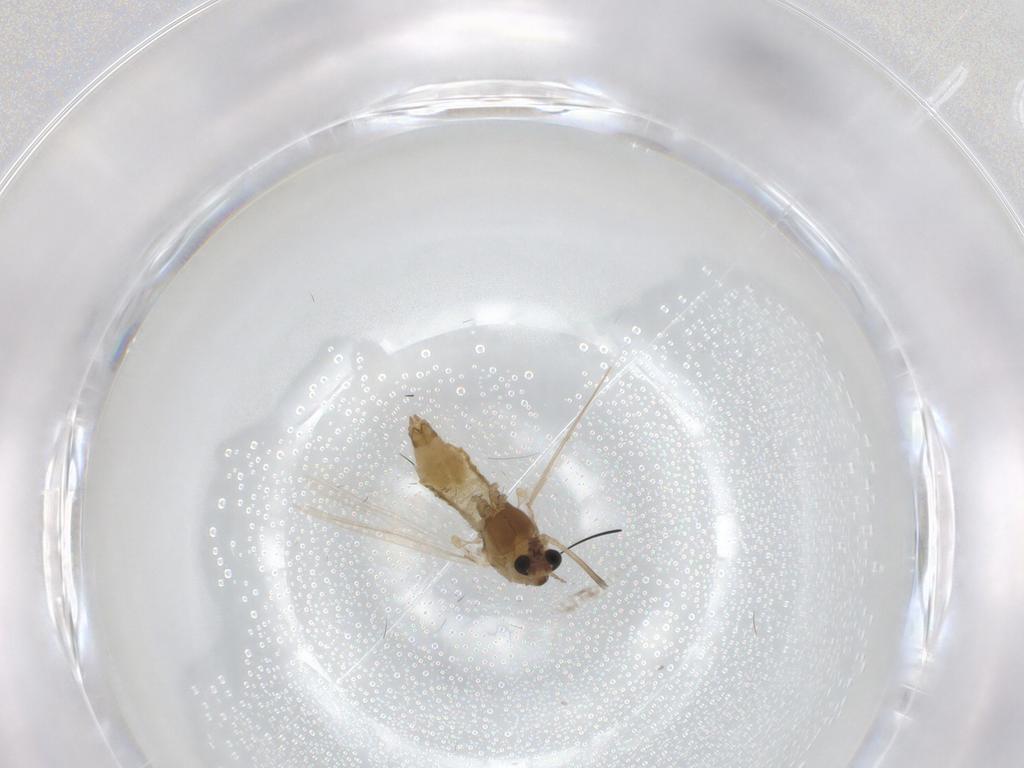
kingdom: Animalia
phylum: Arthropoda
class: Insecta
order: Diptera
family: Chironomidae
